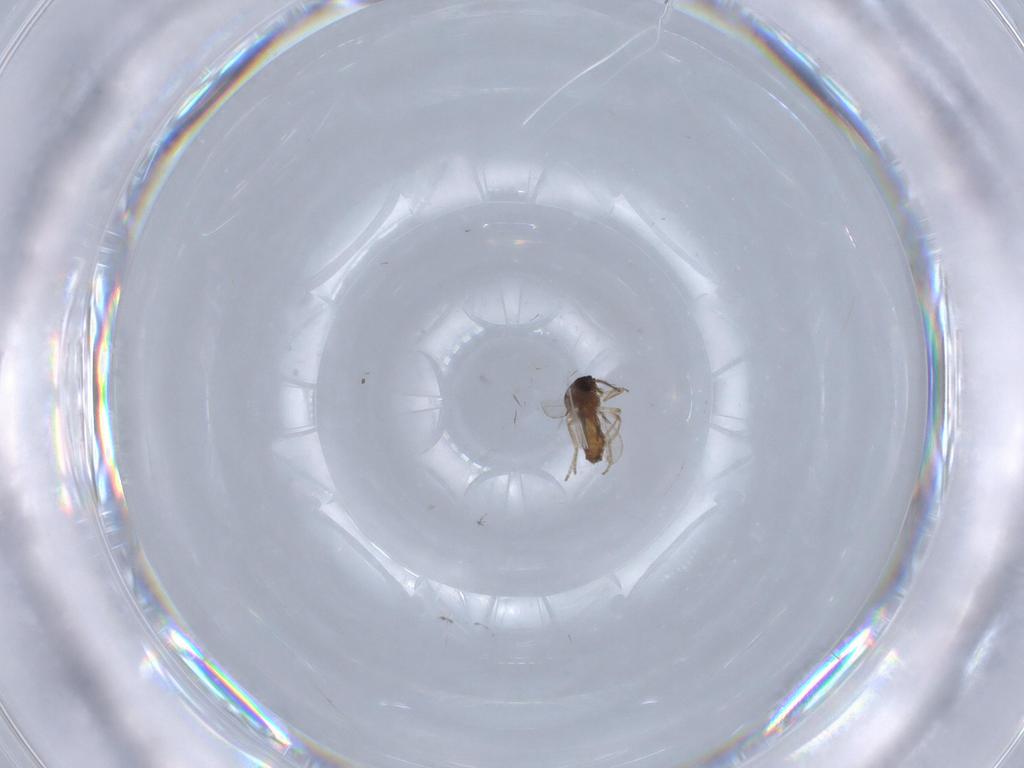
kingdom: Animalia
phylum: Arthropoda
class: Insecta
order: Diptera
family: Ceratopogonidae
